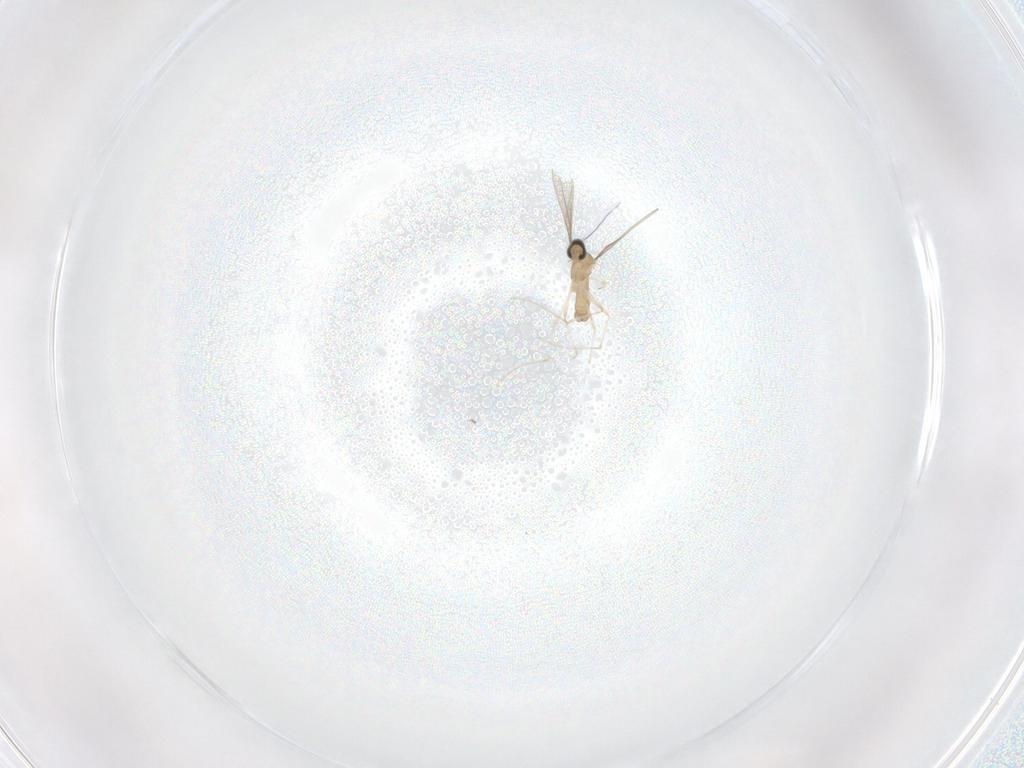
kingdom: Animalia
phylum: Arthropoda
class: Insecta
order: Diptera
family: Cecidomyiidae
